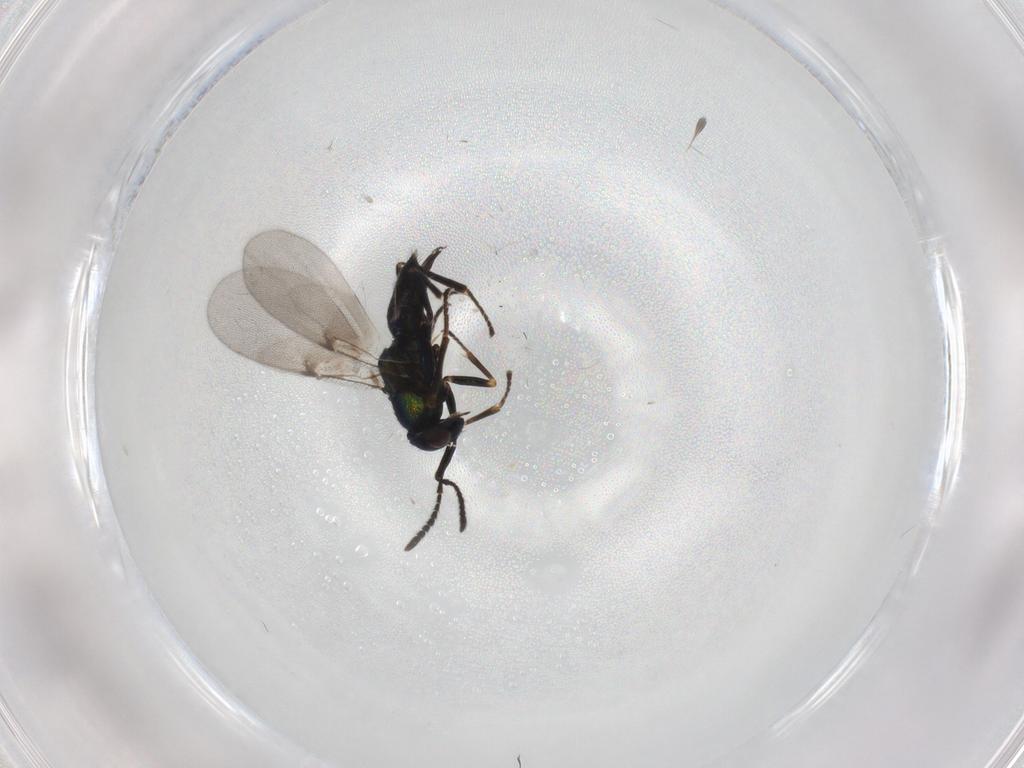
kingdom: Animalia
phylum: Arthropoda
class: Insecta
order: Hymenoptera
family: Encyrtidae
